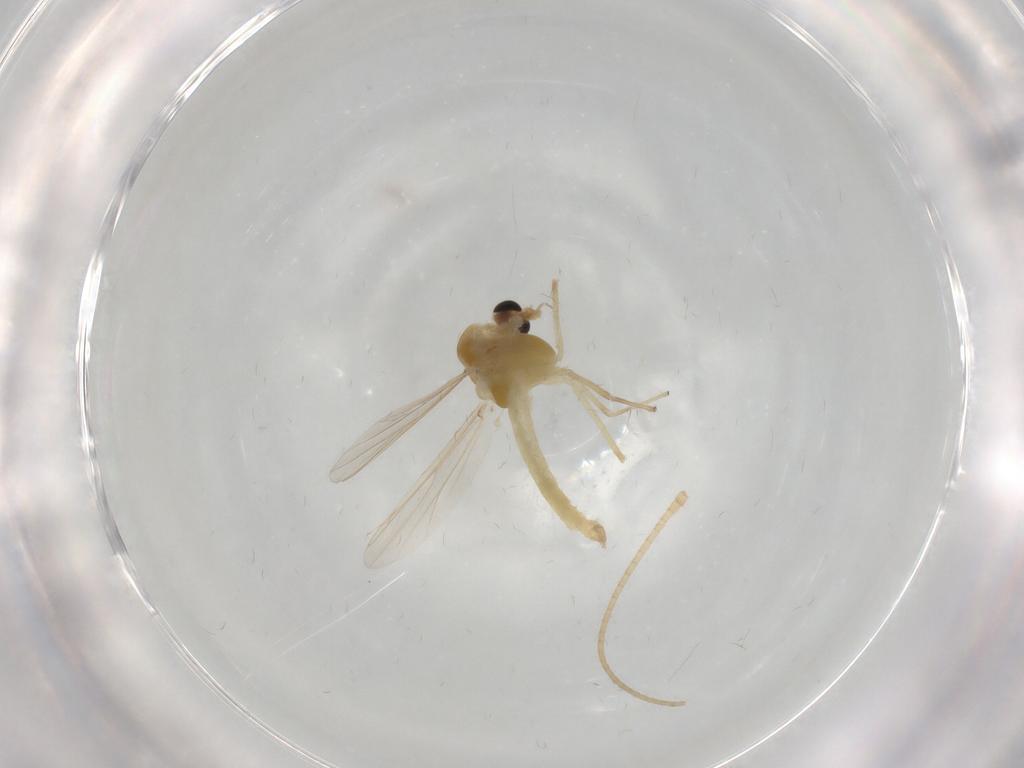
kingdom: Animalia
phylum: Arthropoda
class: Insecta
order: Diptera
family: Chironomidae
